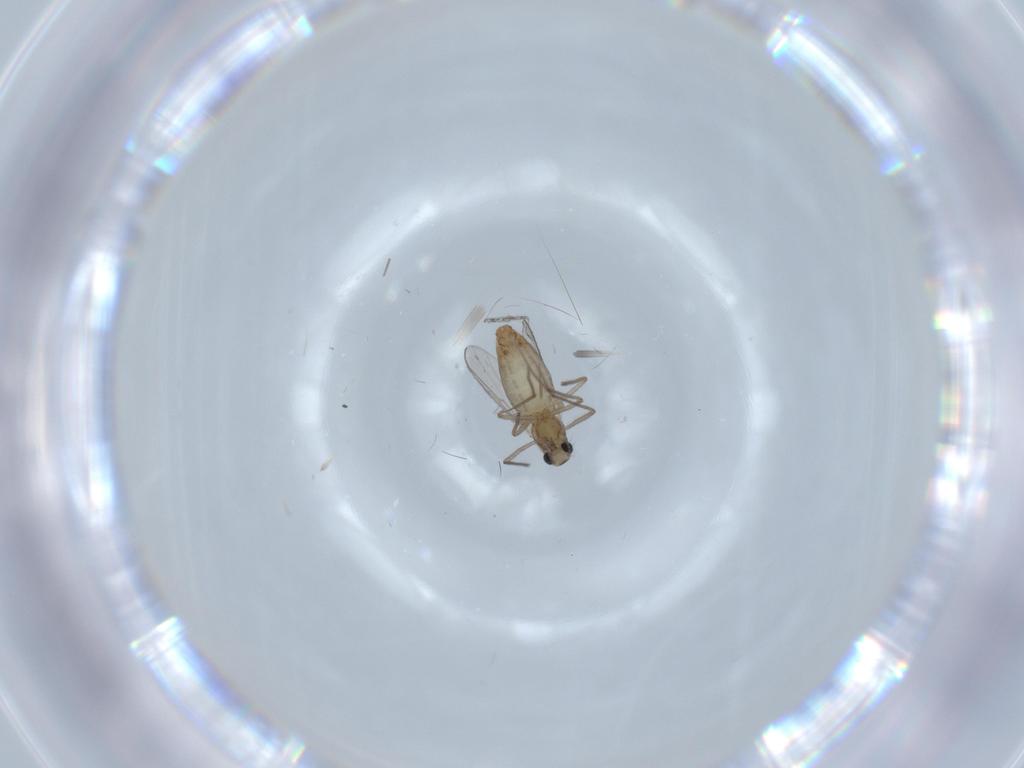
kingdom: Animalia
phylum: Arthropoda
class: Insecta
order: Diptera
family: Chironomidae
